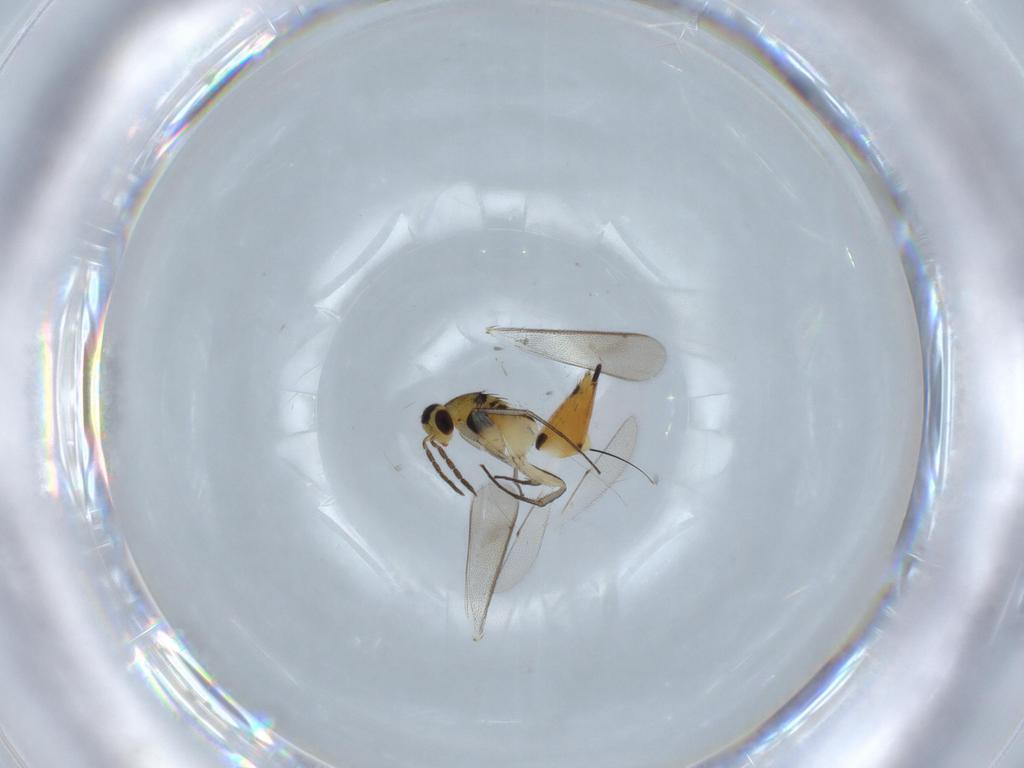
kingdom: Animalia
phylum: Arthropoda
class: Insecta
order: Hymenoptera
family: Eulophidae
